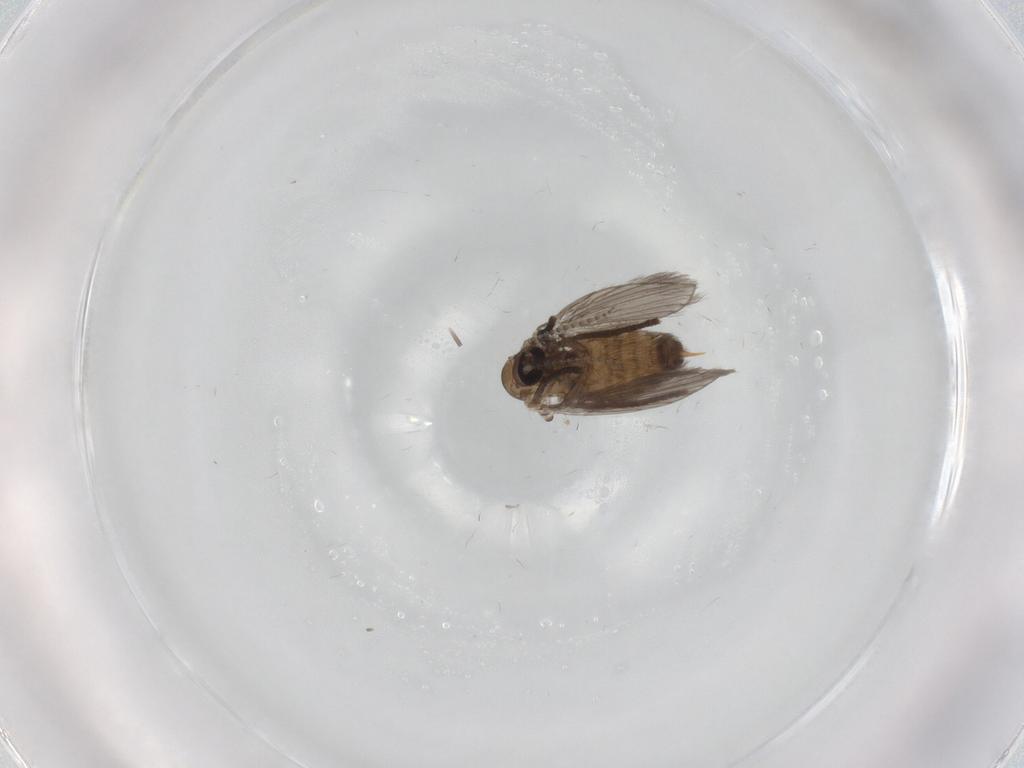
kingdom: Animalia
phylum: Arthropoda
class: Insecta
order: Diptera
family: Psychodidae
